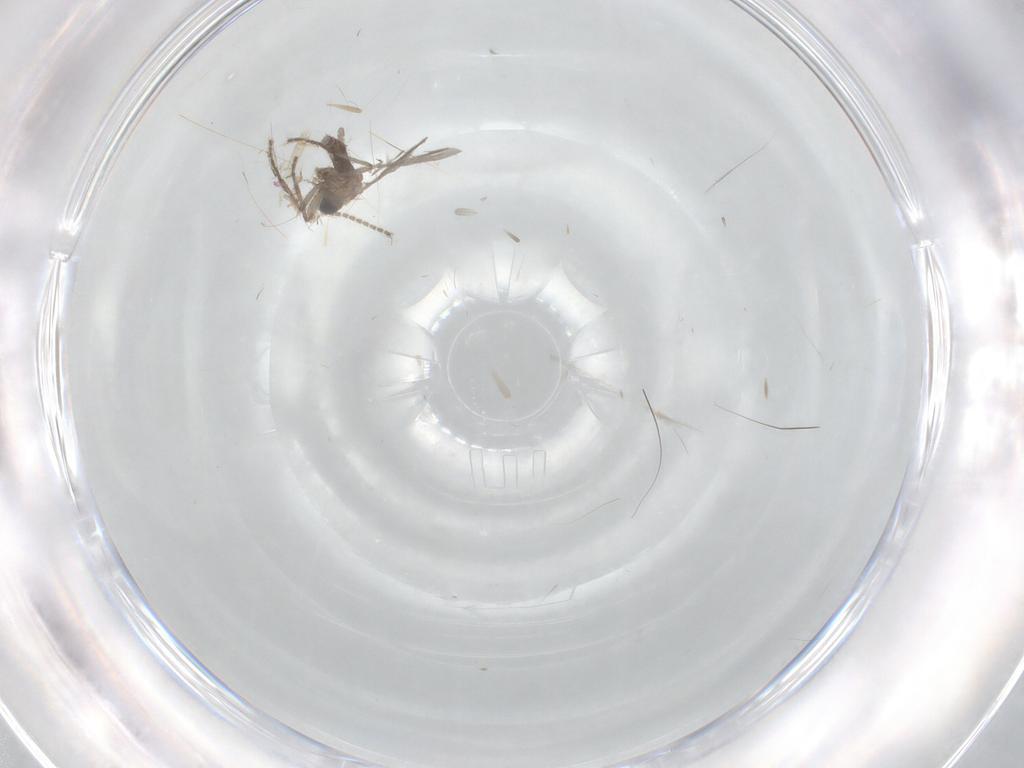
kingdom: Animalia
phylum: Arthropoda
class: Insecta
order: Diptera
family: Sciaridae
